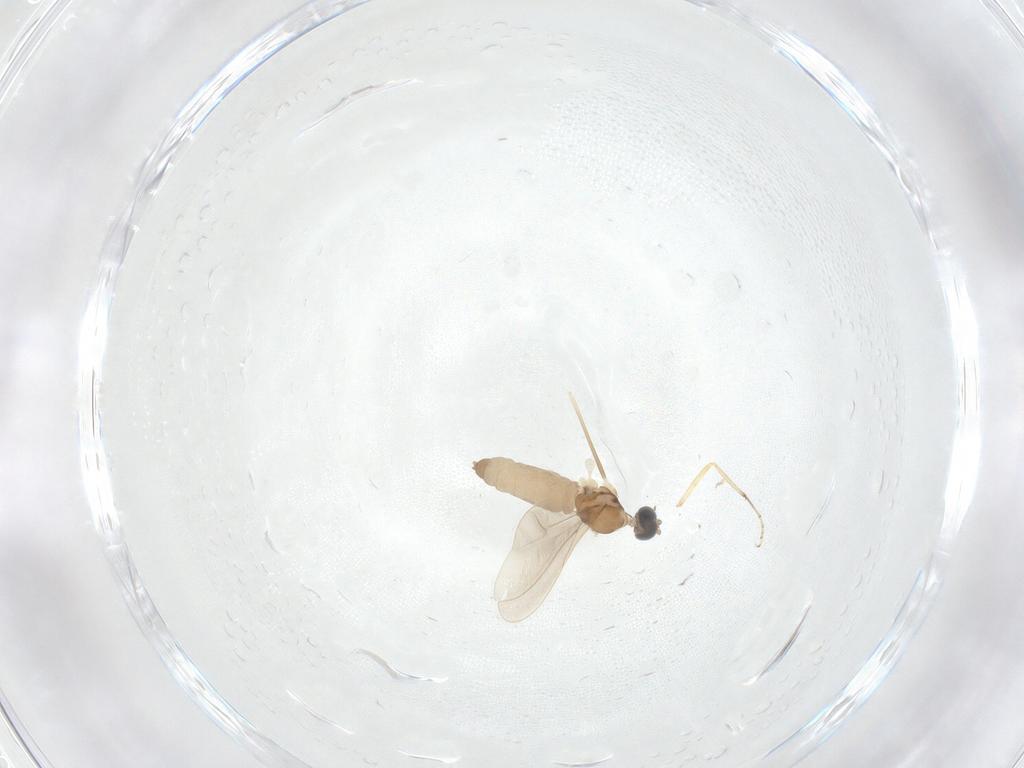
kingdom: Animalia
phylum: Arthropoda
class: Insecta
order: Diptera
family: Cecidomyiidae
